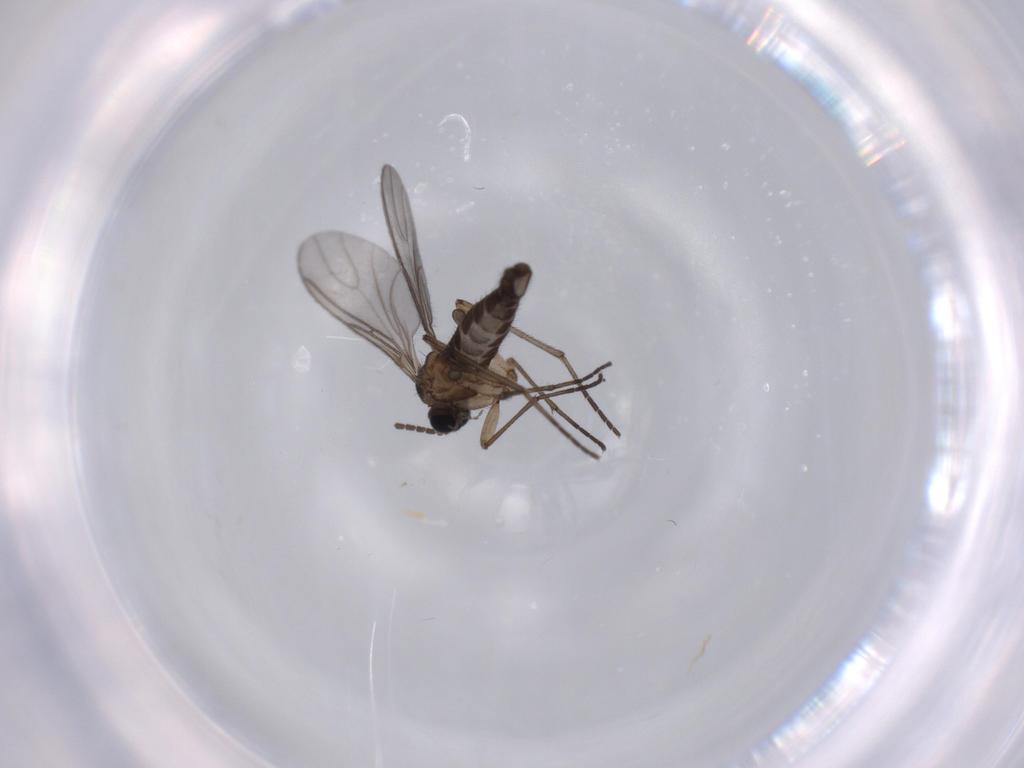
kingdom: Animalia
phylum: Arthropoda
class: Insecta
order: Diptera
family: Sciaridae
